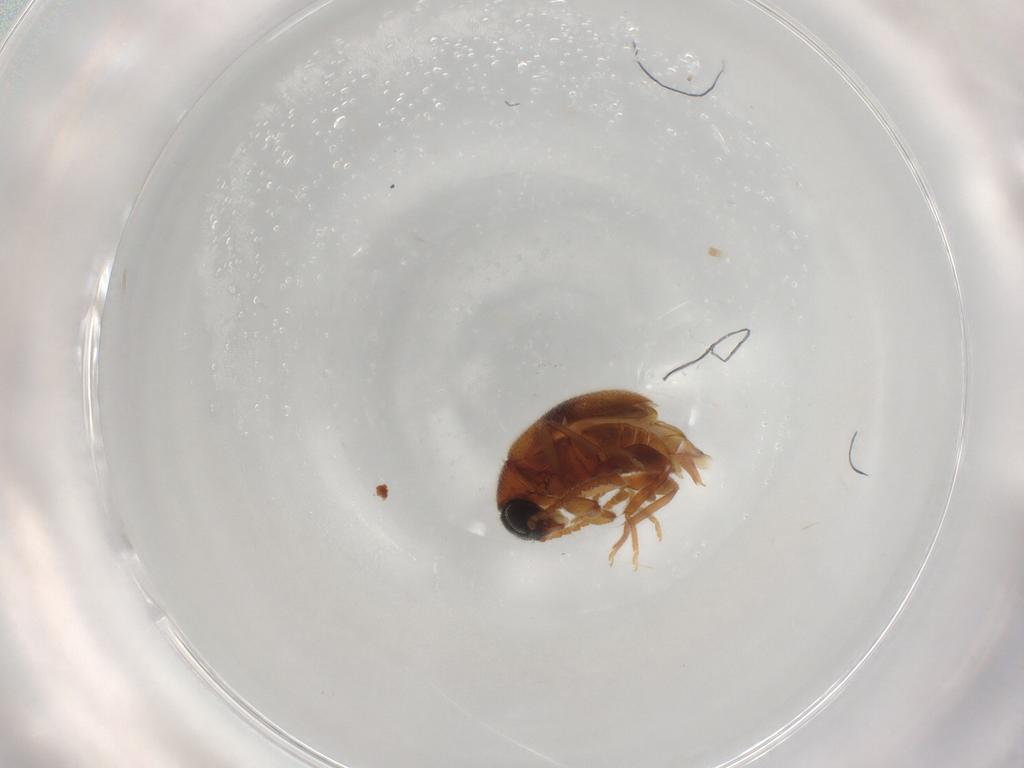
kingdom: Animalia
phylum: Arthropoda
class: Insecta
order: Coleoptera
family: Aderidae
